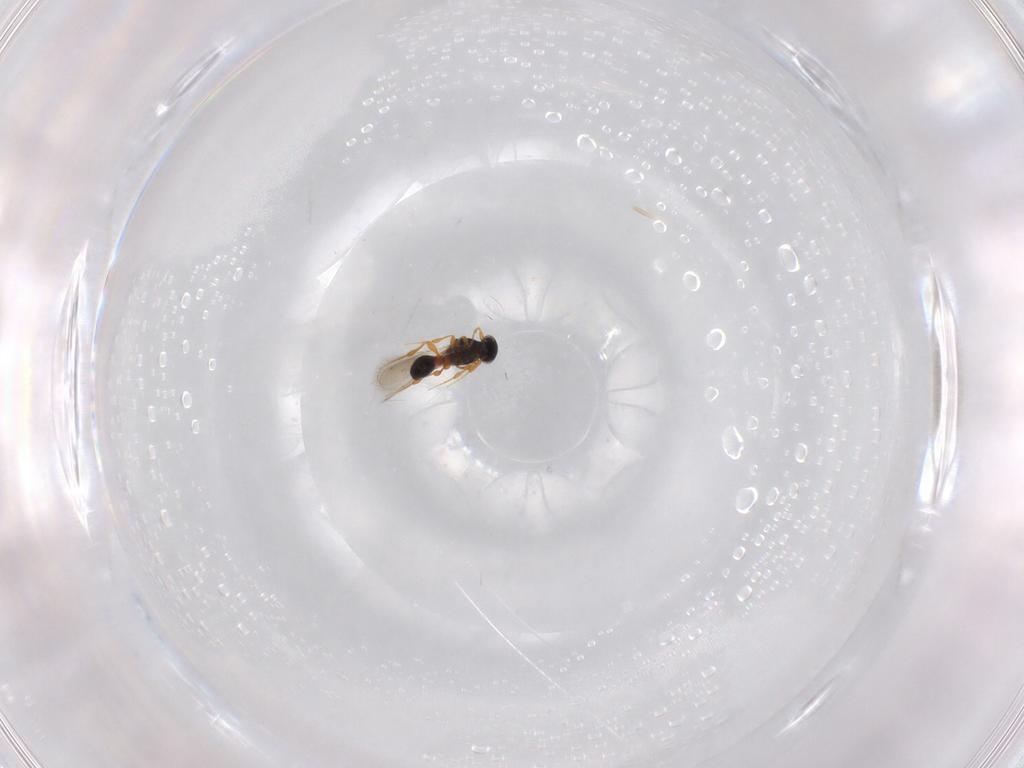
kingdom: Animalia
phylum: Arthropoda
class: Insecta
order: Hymenoptera
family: Platygastridae
